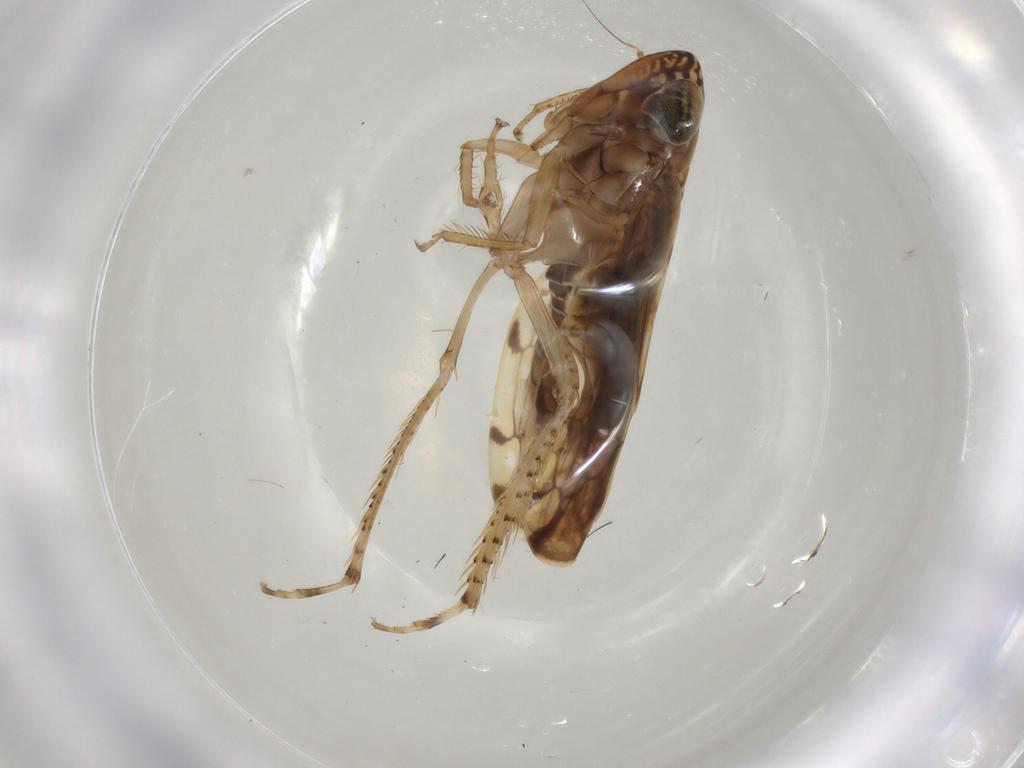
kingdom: Animalia
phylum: Arthropoda
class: Insecta
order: Hemiptera
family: Cicadellidae
